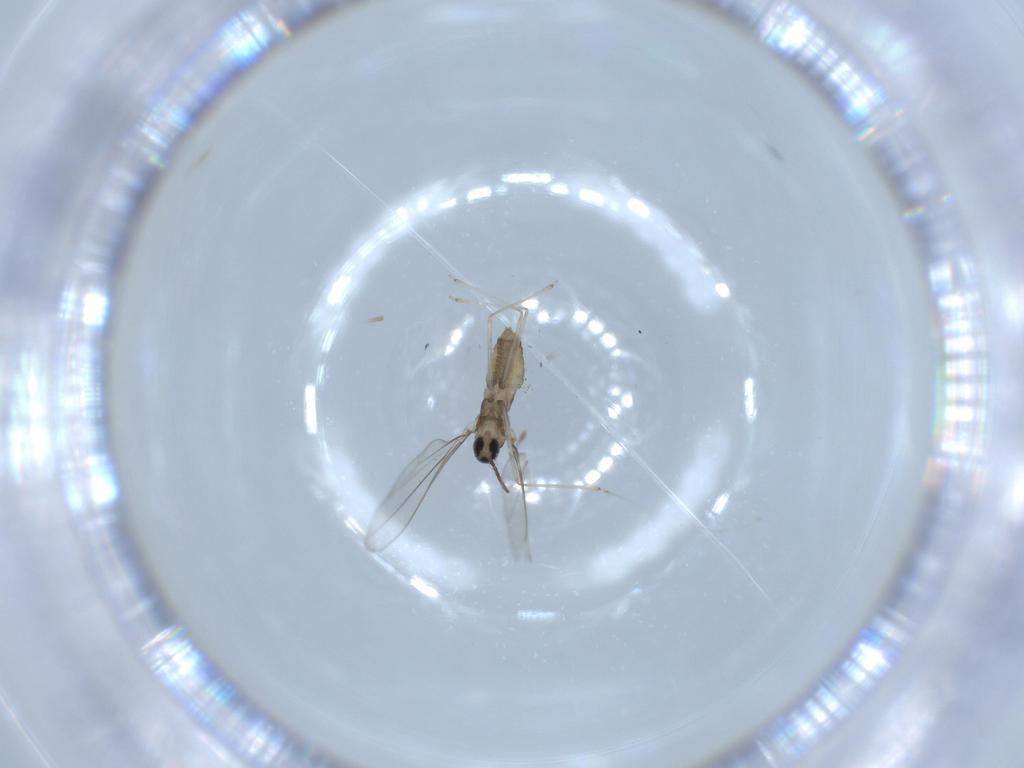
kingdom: Animalia
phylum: Arthropoda
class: Insecta
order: Diptera
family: Cecidomyiidae
